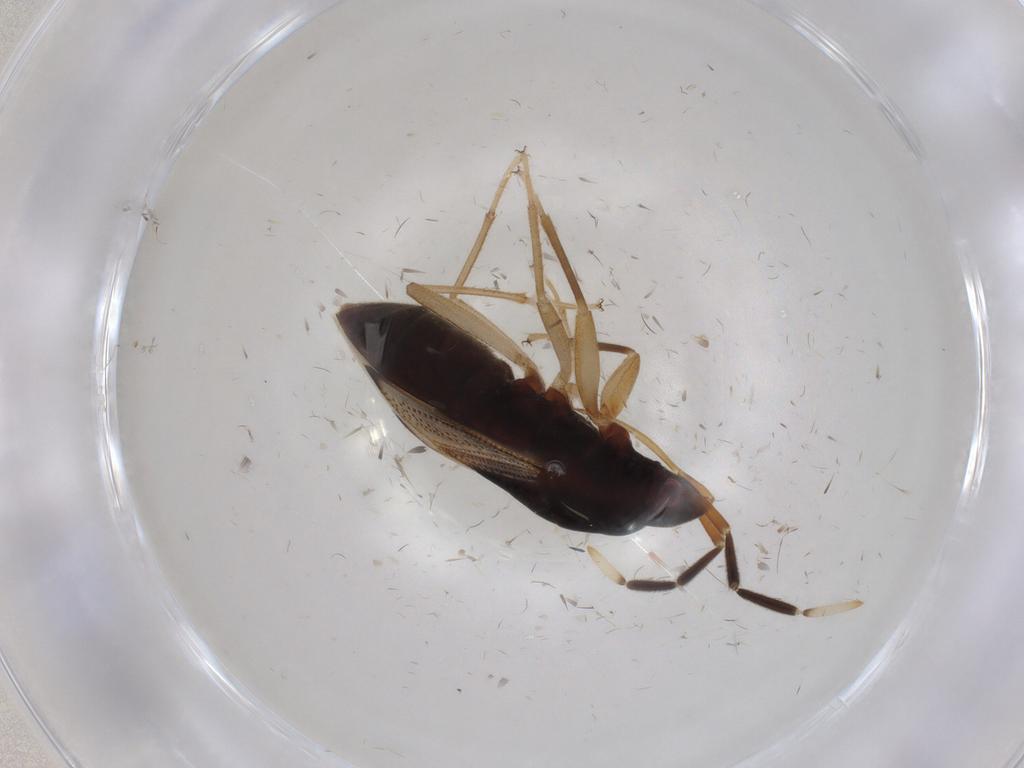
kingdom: Animalia
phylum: Arthropoda
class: Insecta
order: Hemiptera
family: Rhyparochromidae
